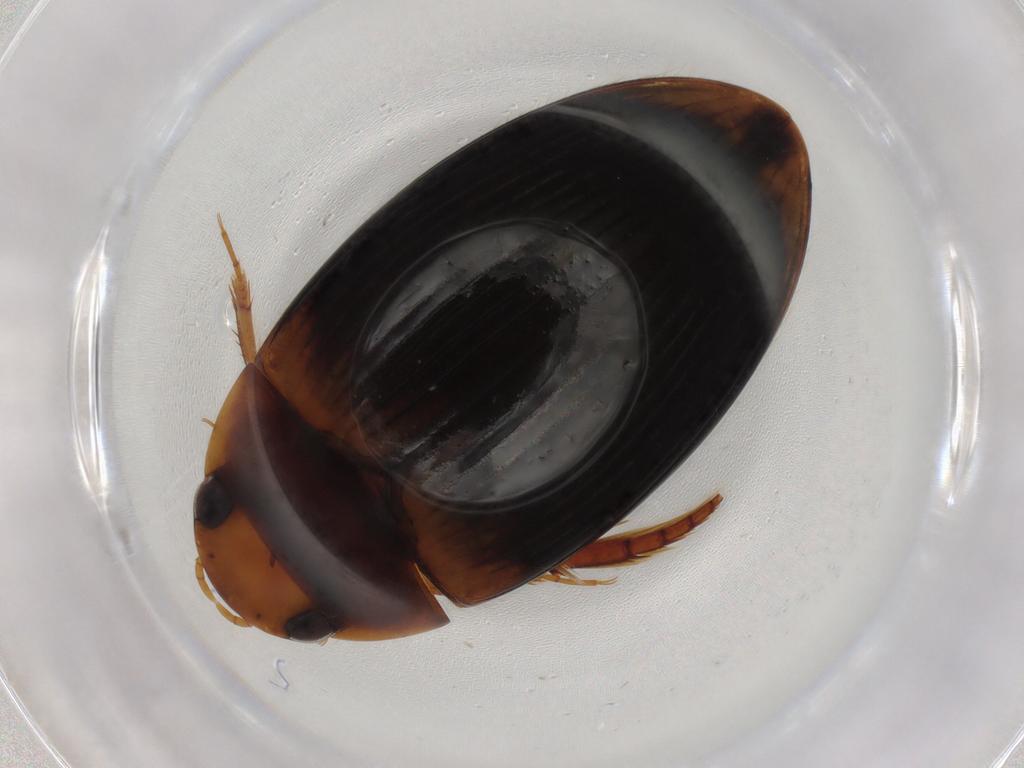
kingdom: Animalia
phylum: Arthropoda
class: Insecta
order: Coleoptera
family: Dytiscidae
